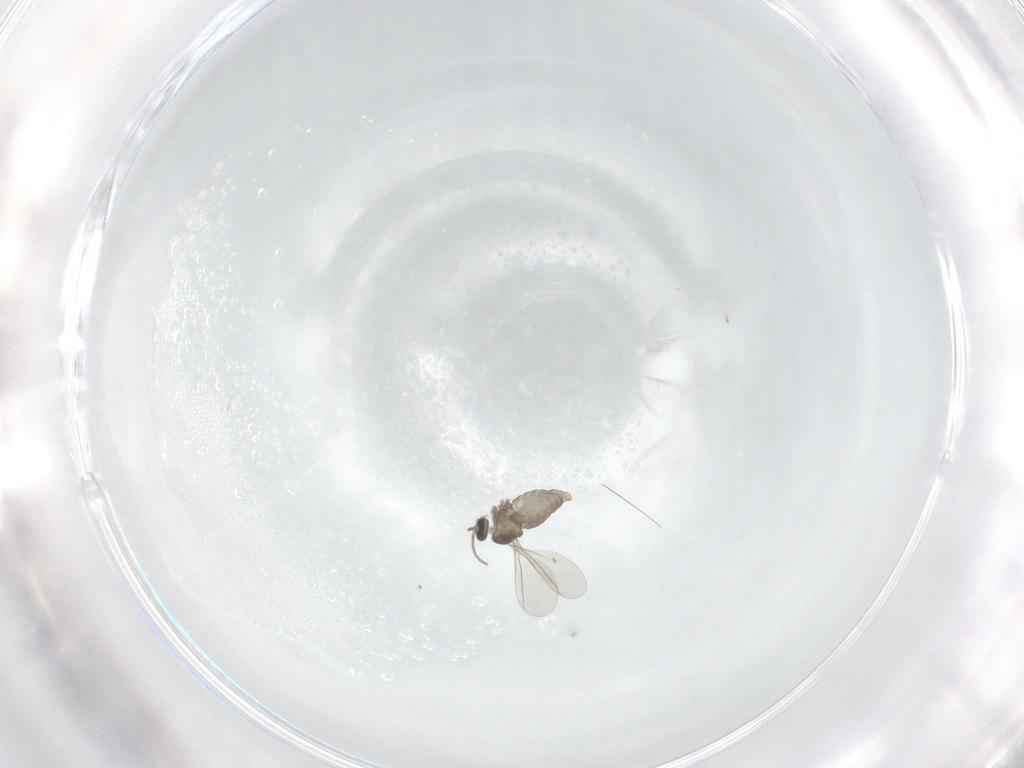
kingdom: Animalia
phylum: Arthropoda
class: Insecta
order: Diptera
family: Cecidomyiidae
